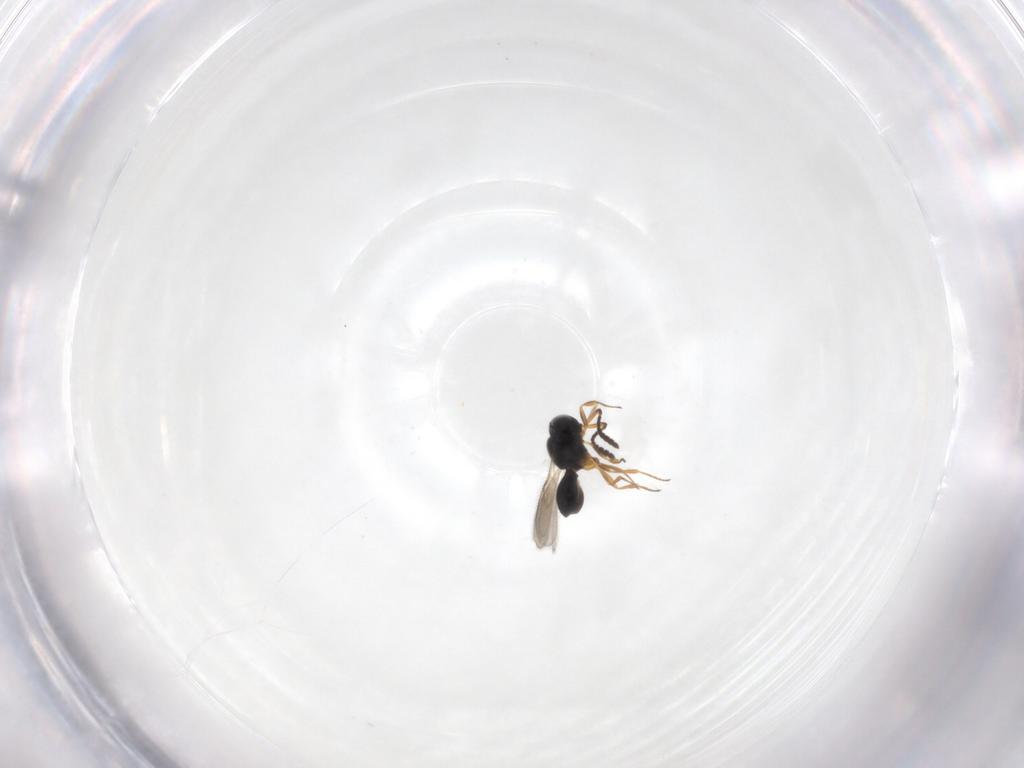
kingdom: Animalia
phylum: Arthropoda
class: Insecta
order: Hymenoptera
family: Scelionidae
